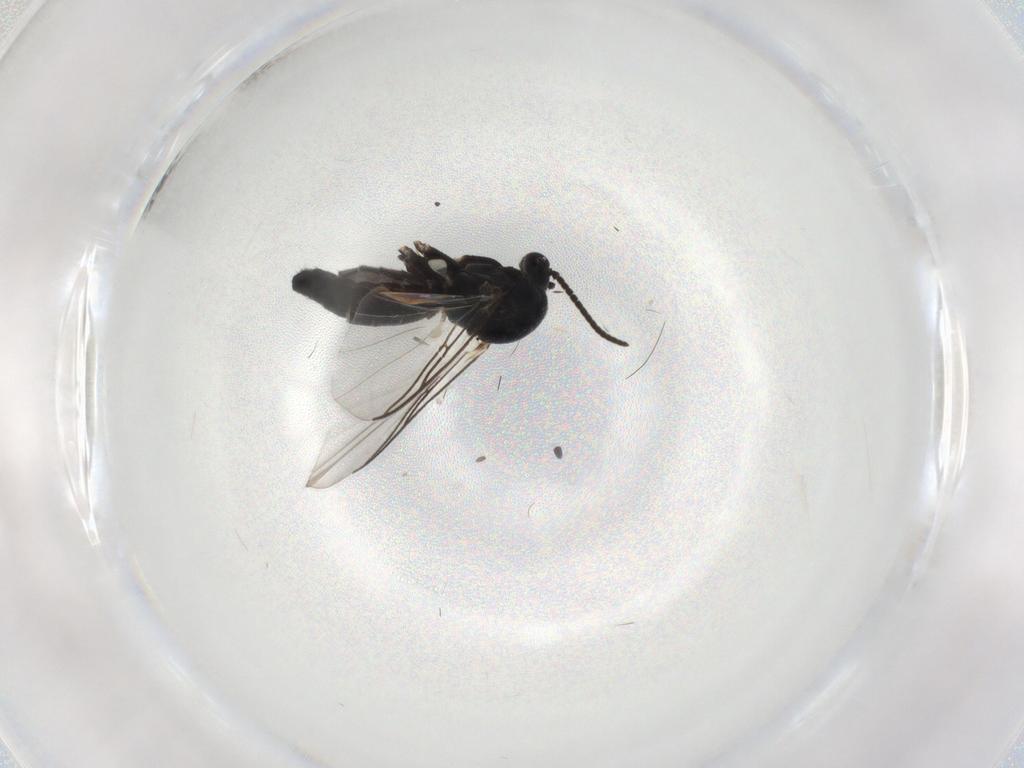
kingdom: Animalia
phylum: Arthropoda
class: Insecta
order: Diptera
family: Mycetophilidae
